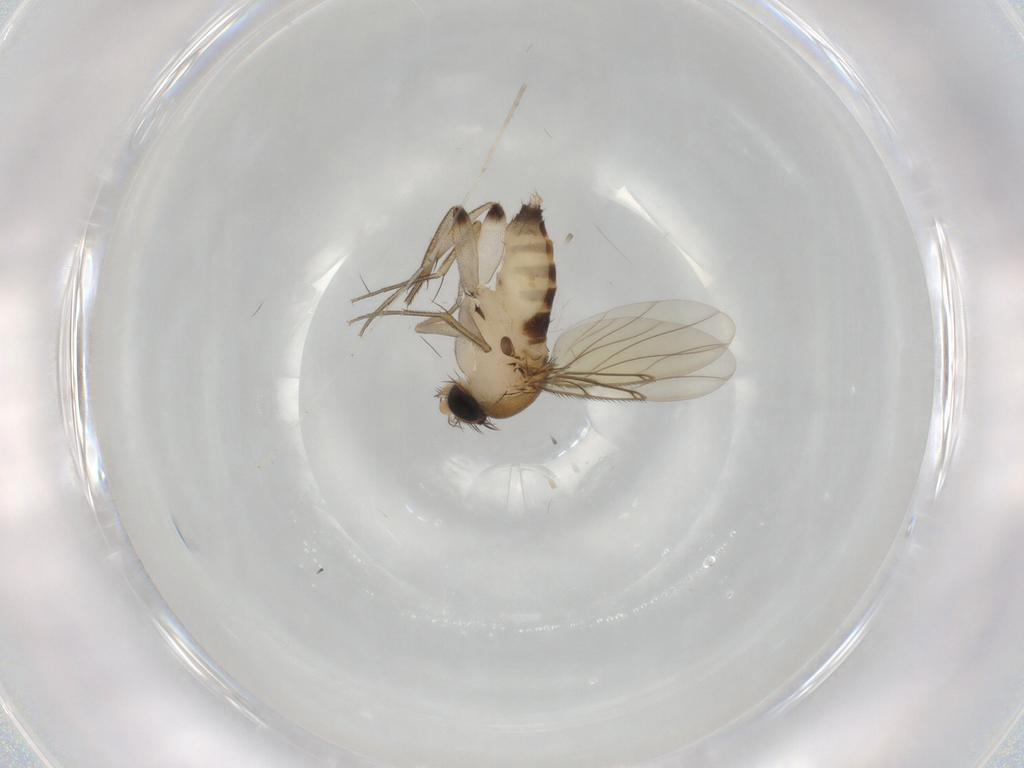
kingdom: Animalia
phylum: Arthropoda
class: Insecta
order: Diptera
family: Phoridae
